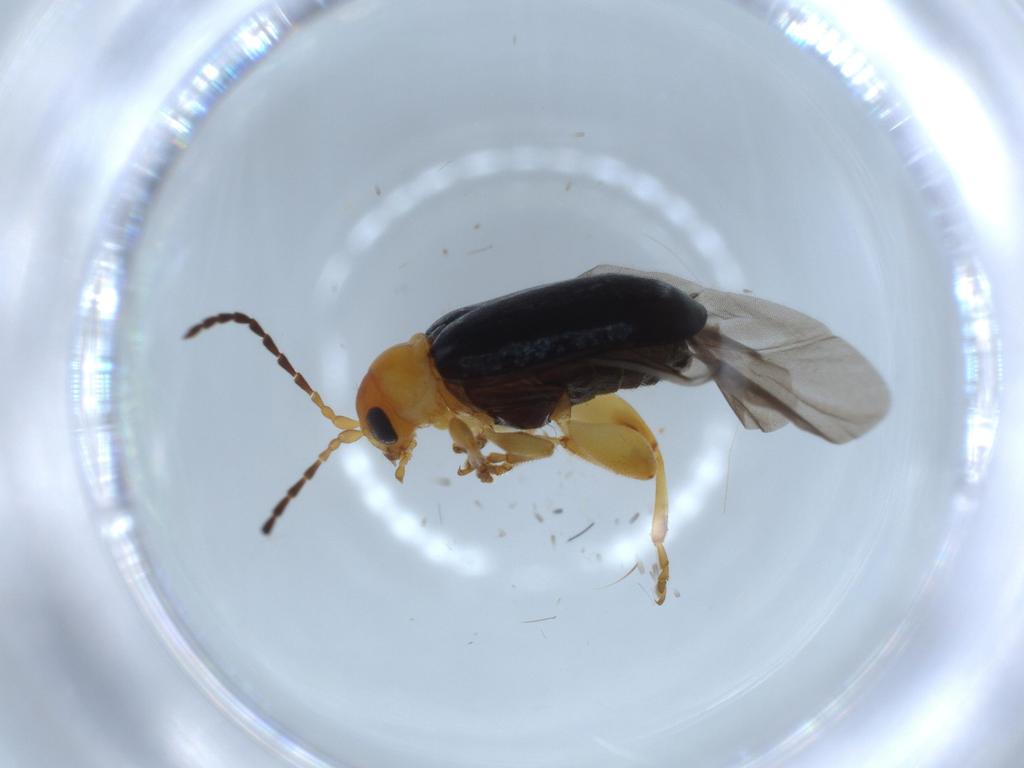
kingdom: Animalia
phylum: Arthropoda
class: Insecta
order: Coleoptera
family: Chrysomelidae
